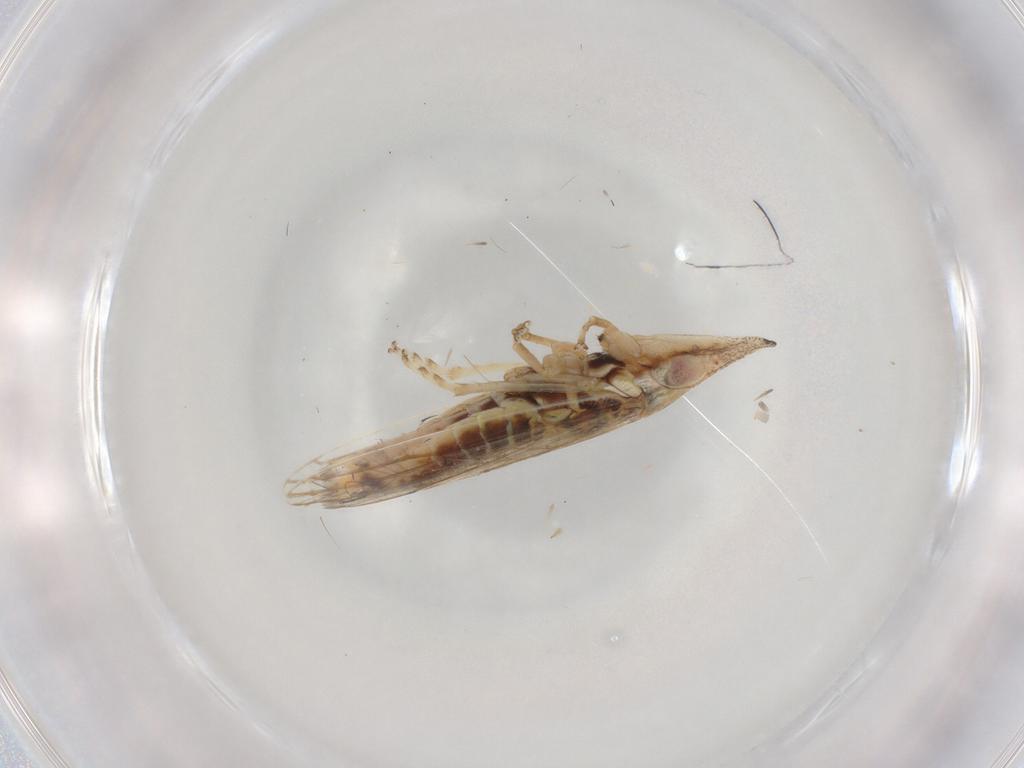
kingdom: Animalia
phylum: Arthropoda
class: Insecta
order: Hemiptera
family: Cicadellidae
